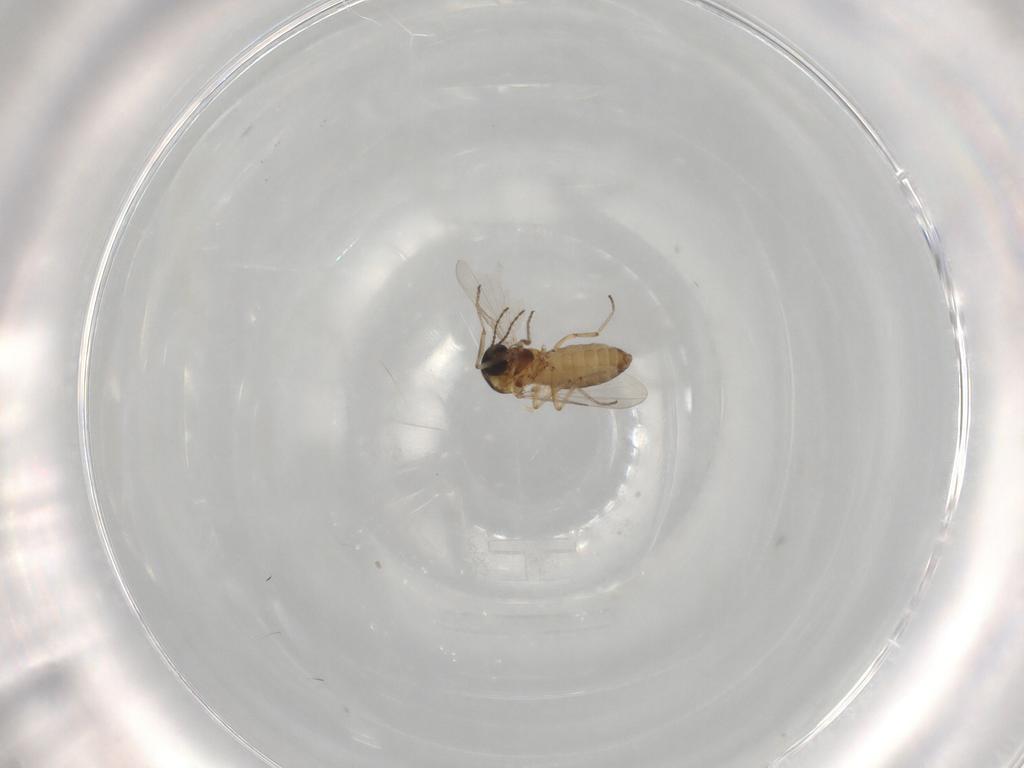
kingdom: Animalia
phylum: Arthropoda
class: Insecta
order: Diptera
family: Ceratopogonidae
